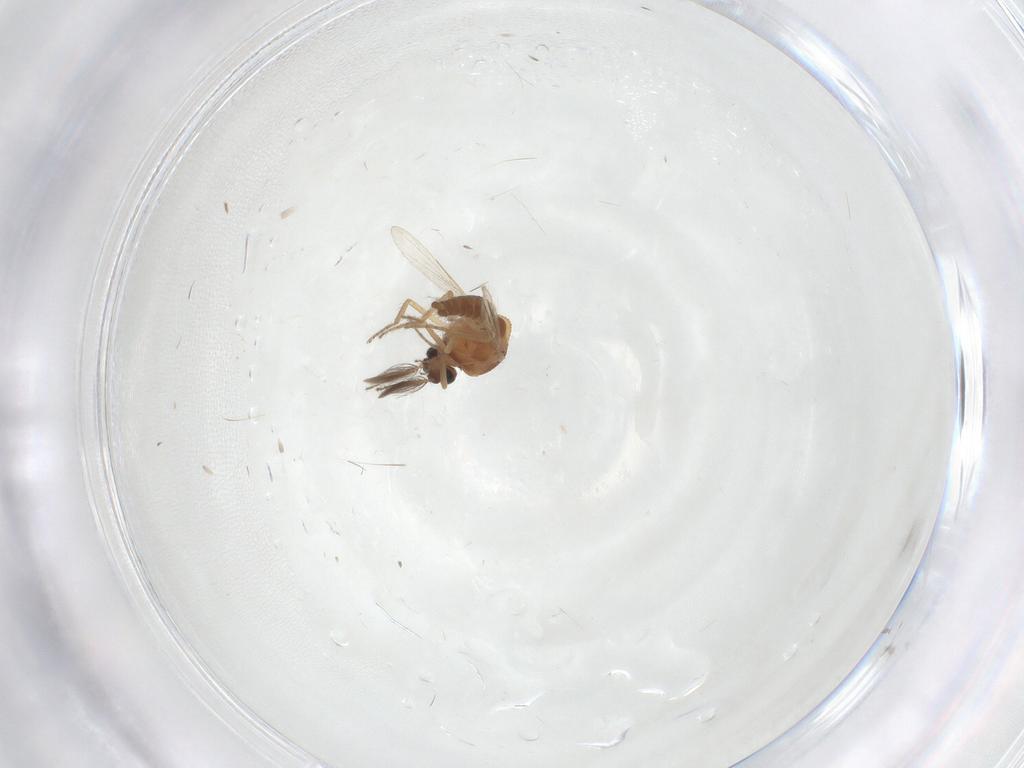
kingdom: Animalia
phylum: Arthropoda
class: Insecta
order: Diptera
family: Ceratopogonidae
